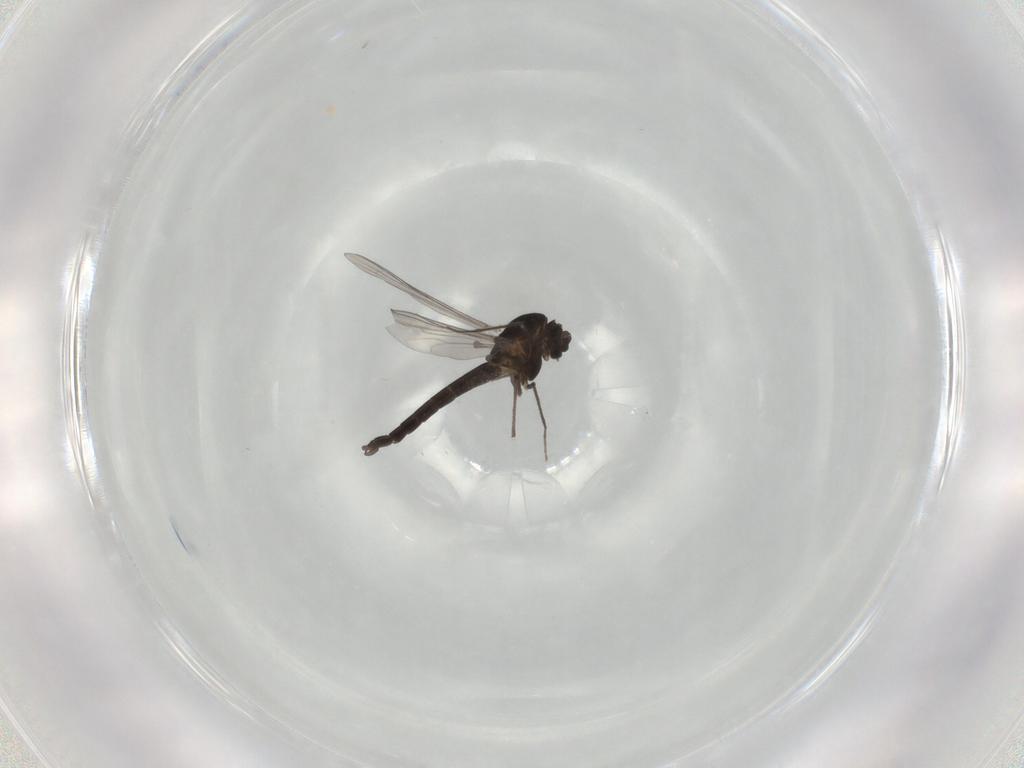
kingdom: Animalia
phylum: Arthropoda
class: Insecta
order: Diptera
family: Chironomidae
